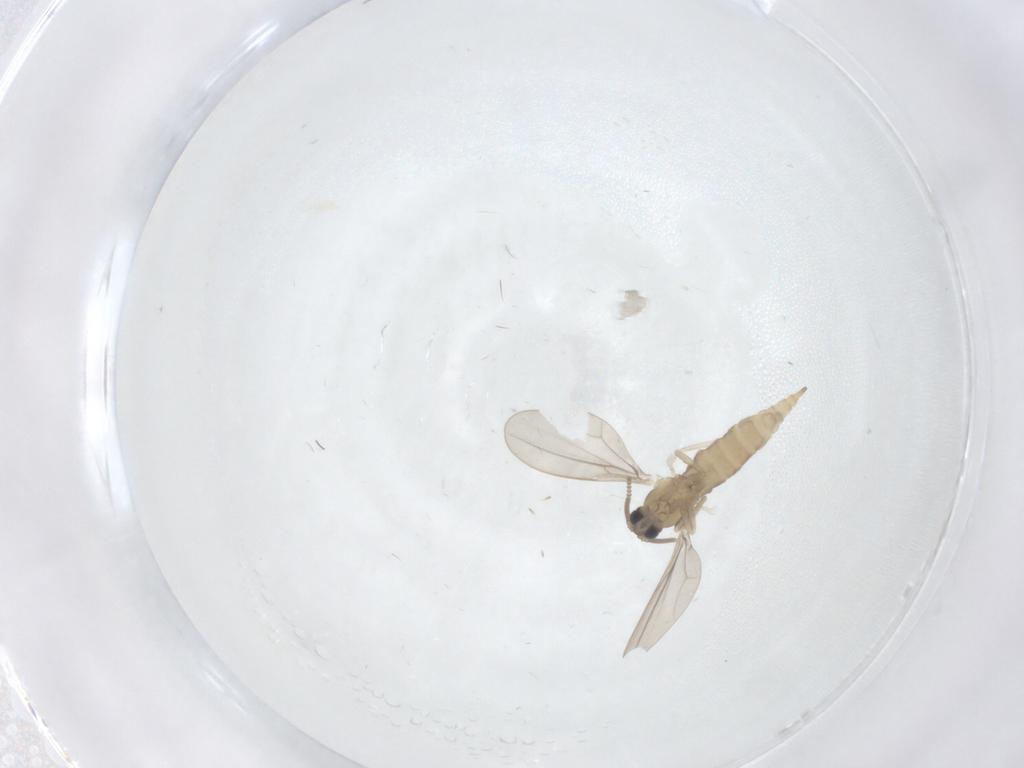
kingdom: Animalia
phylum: Arthropoda
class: Insecta
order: Diptera
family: Cecidomyiidae
